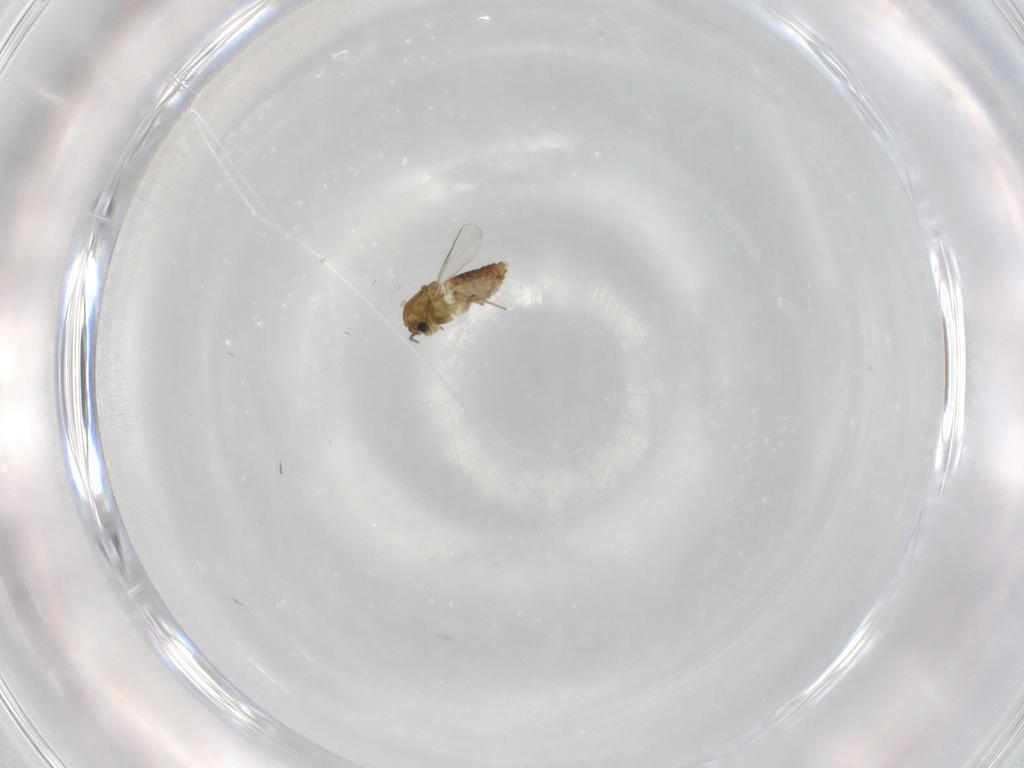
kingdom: Animalia
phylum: Arthropoda
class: Insecta
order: Diptera
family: Chironomidae
